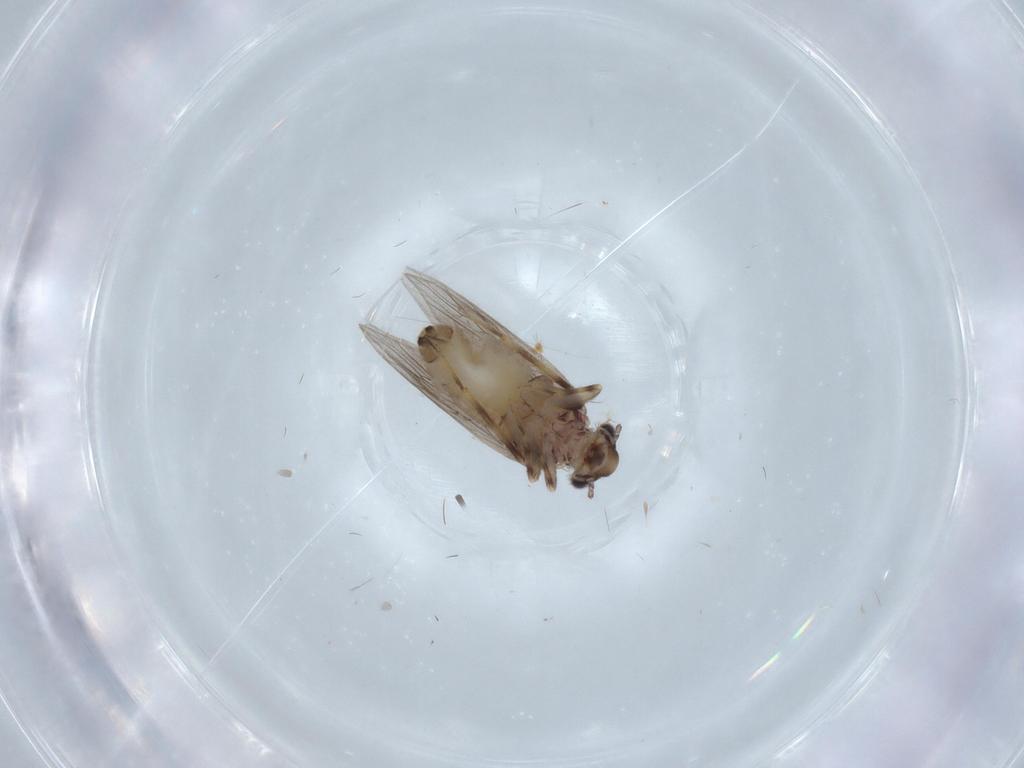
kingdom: Animalia
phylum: Arthropoda
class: Insecta
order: Psocodea
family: Lepidopsocidae
